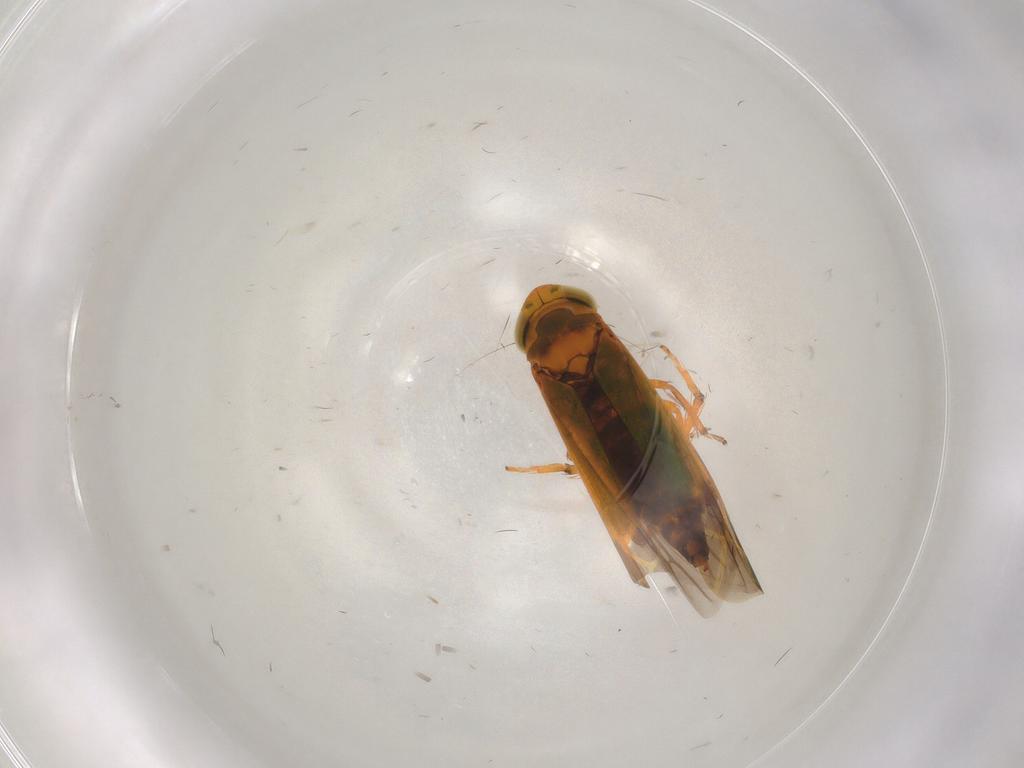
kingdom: Animalia
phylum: Arthropoda
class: Insecta
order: Hemiptera
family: Cicadellidae
